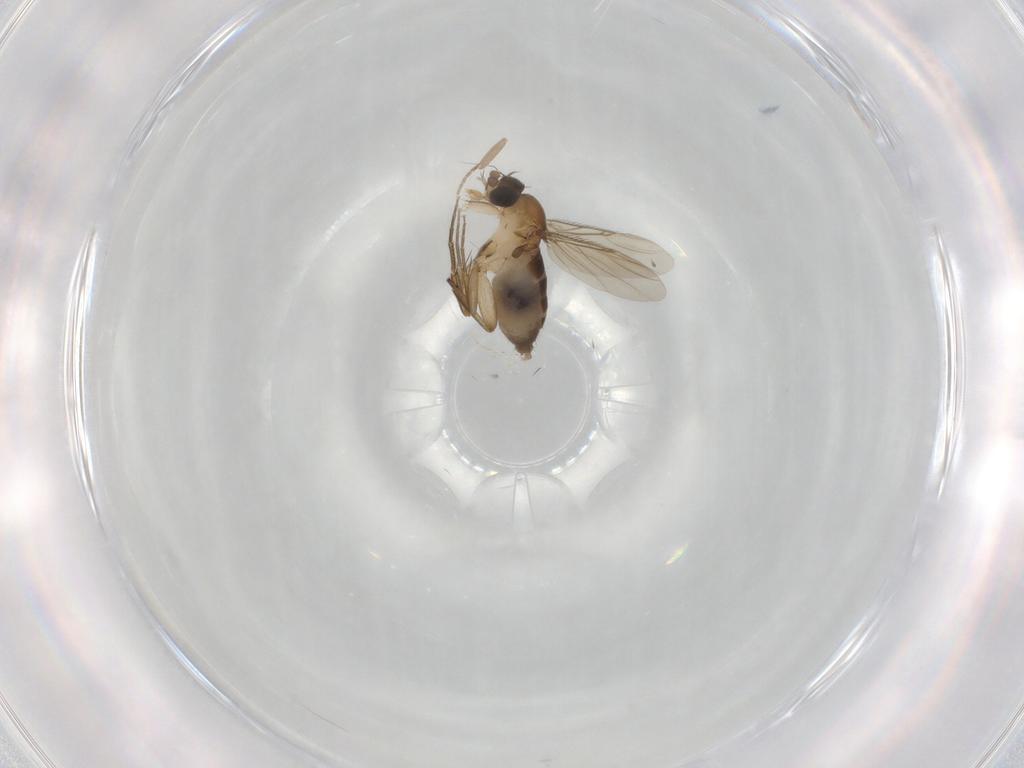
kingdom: Animalia
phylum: Arthropoda
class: Insecta
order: Diptera
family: Phoridae
